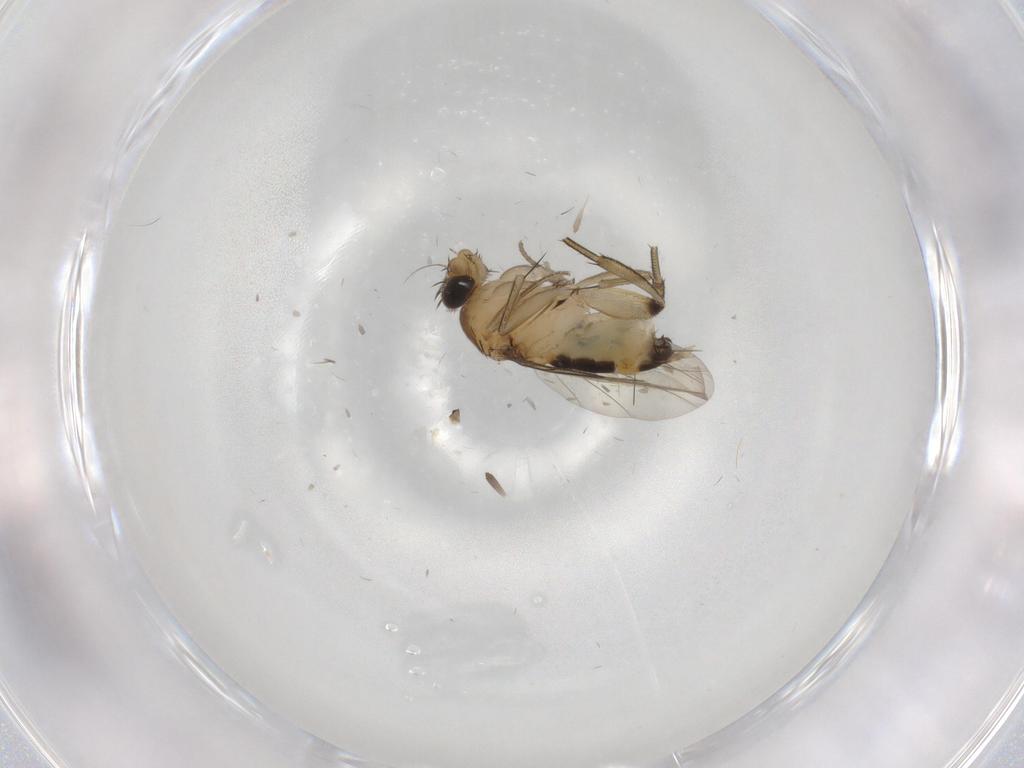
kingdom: Animalia
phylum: Arthropoda
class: Insecta
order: Diptera
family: Phoridae
